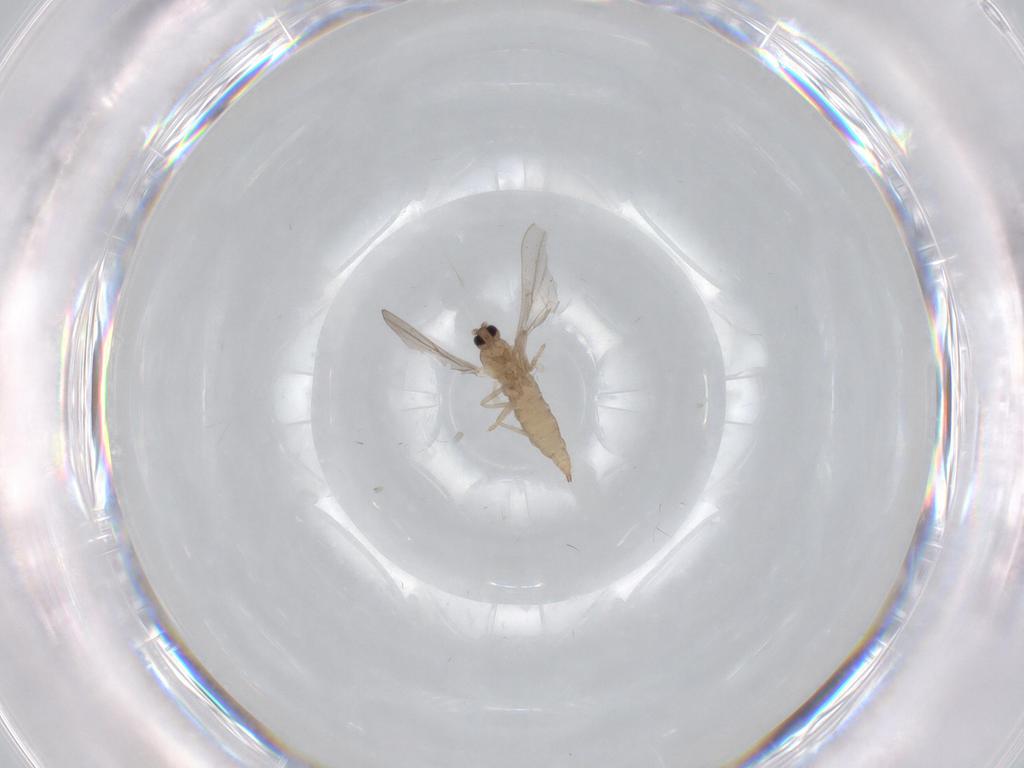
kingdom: Animalia
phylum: Arthropoda
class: Insecta
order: Diptera
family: Cecidomyiidae
